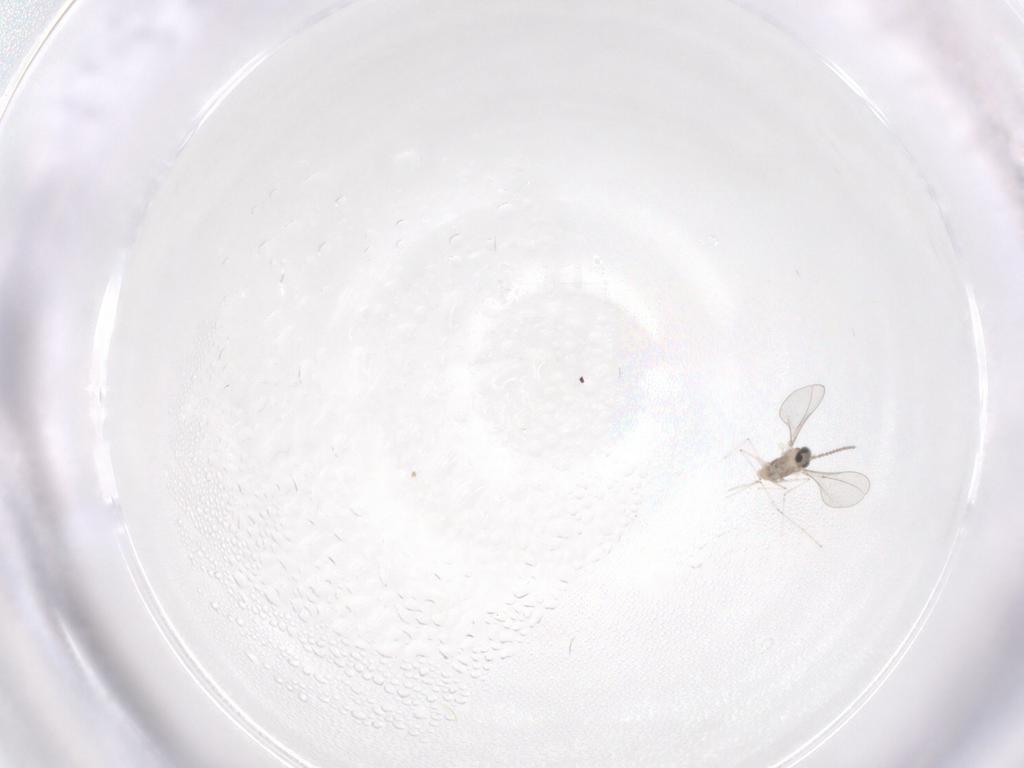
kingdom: Animalia
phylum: Arthropoda
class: Insecta
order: Diptera
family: Cecidomyiidae
